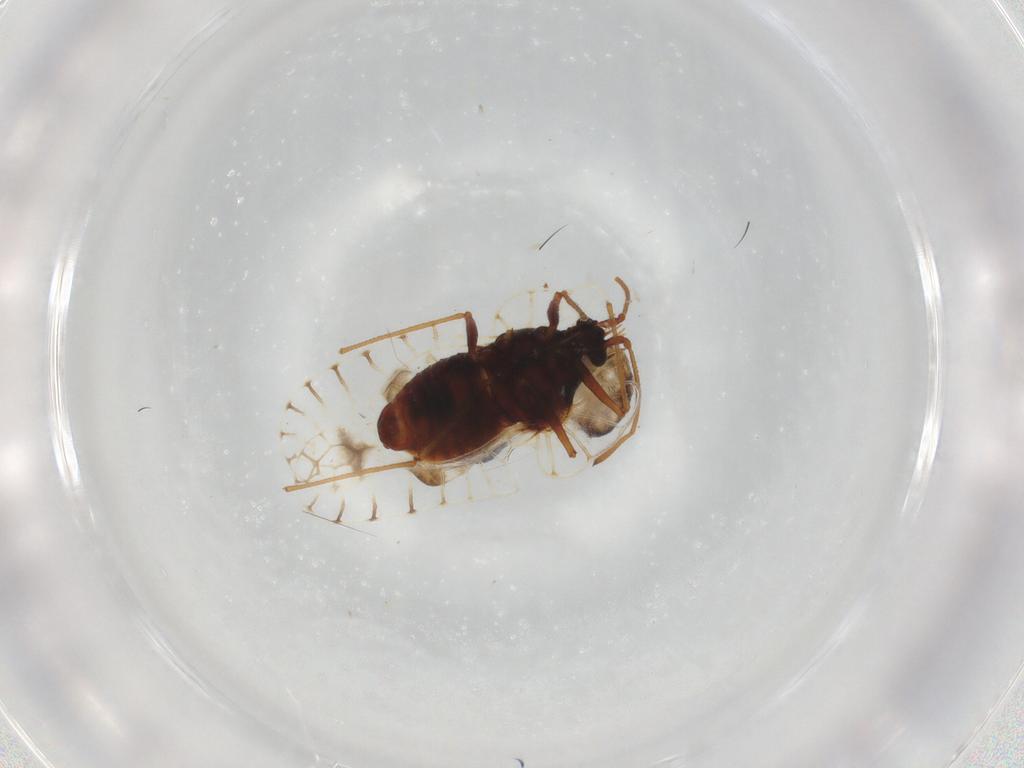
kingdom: Animalia
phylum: Arthropoda
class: Insecta
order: Hemiptera
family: Tingidae
